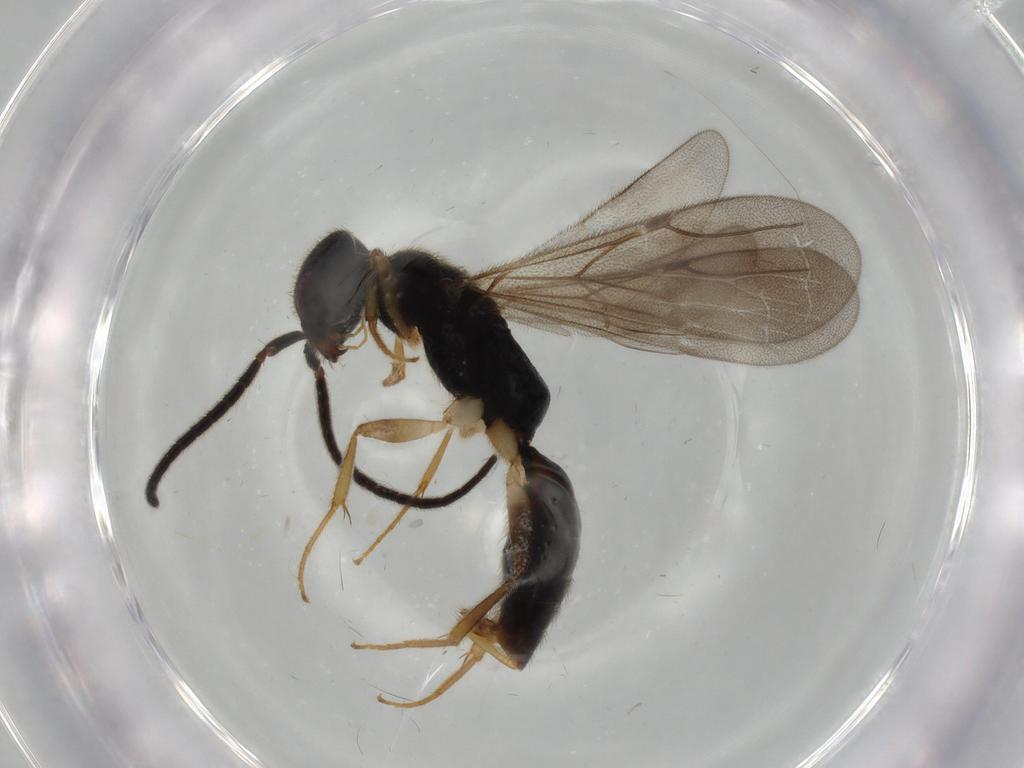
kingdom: Animalia
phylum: Arthropoda
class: Insecta
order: Hymenoptera
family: Bethylidae
